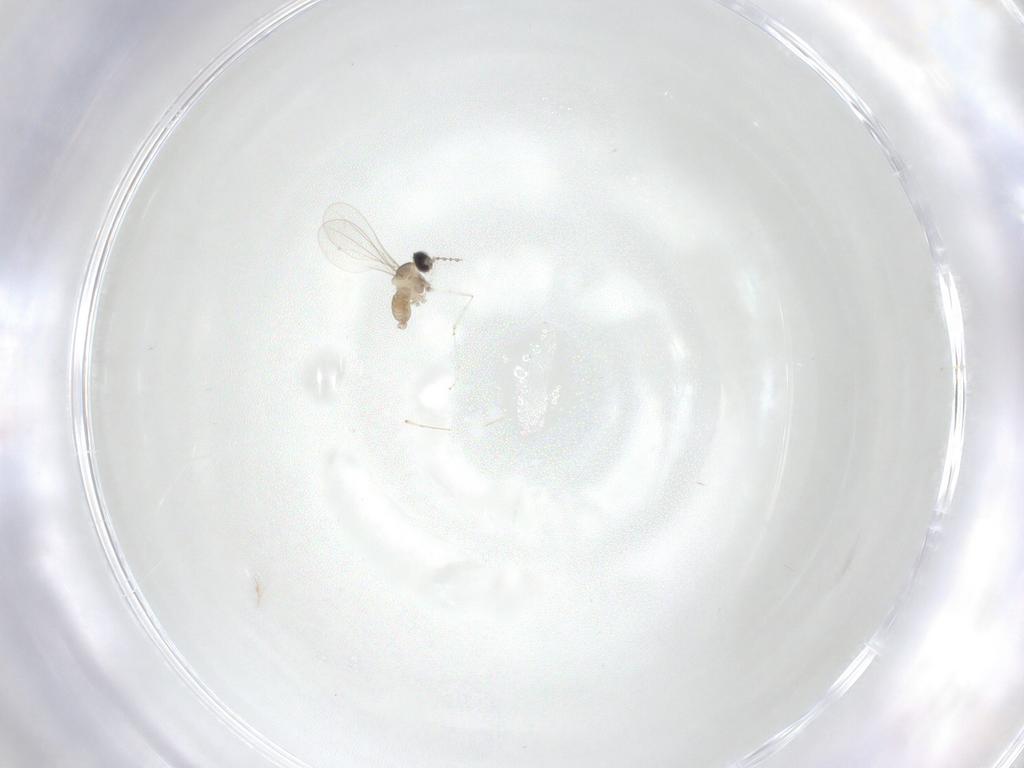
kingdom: Animalia
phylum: Arthropoda
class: Insecta
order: Diptera
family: Cecidomyiidae
